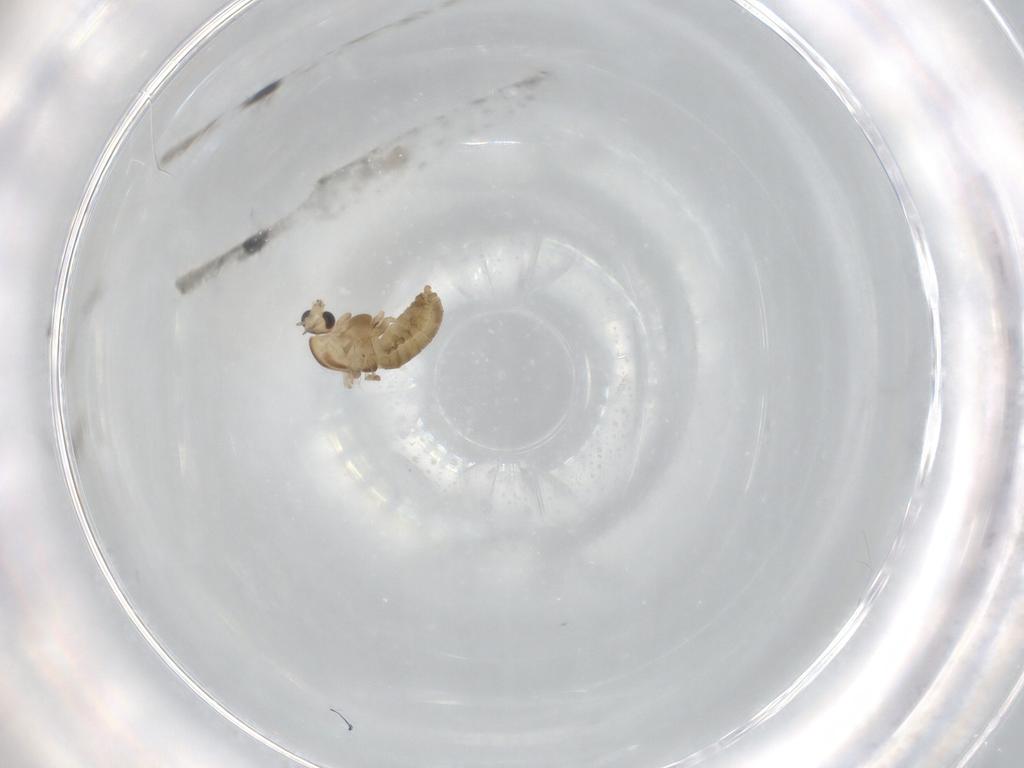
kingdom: Animalia
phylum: Arthropoda
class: Insecta
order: Diptera
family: Chironomidae
